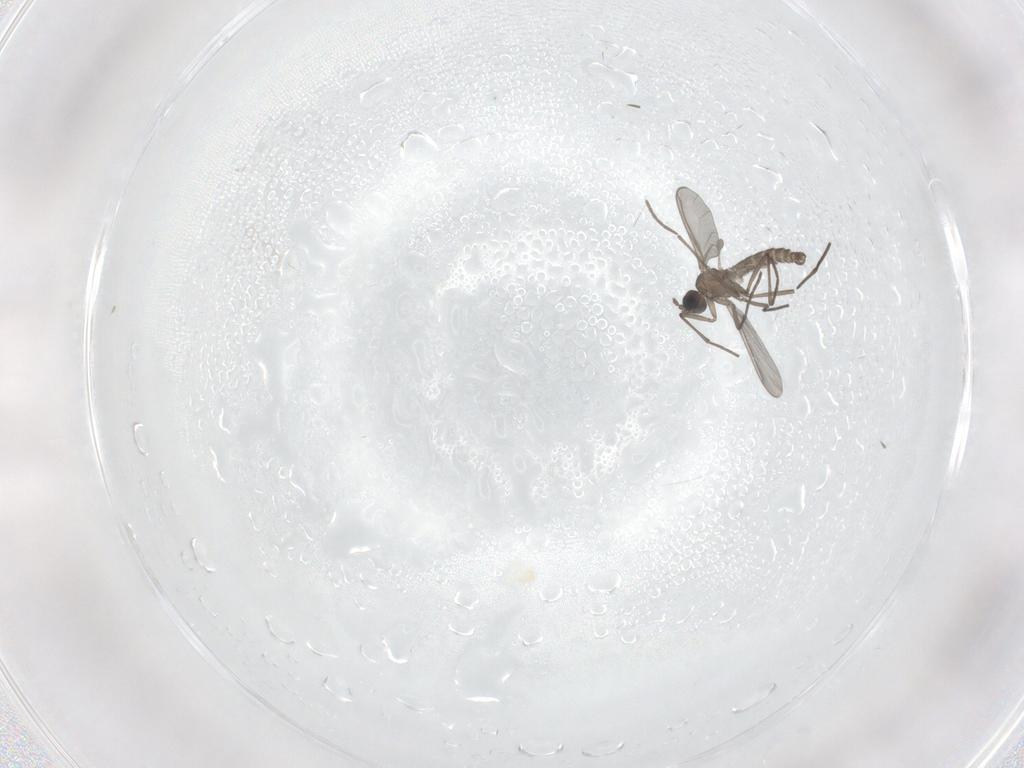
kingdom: Animalia
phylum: Arthropoda
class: Insecta
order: Diptera
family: Sciaridae
